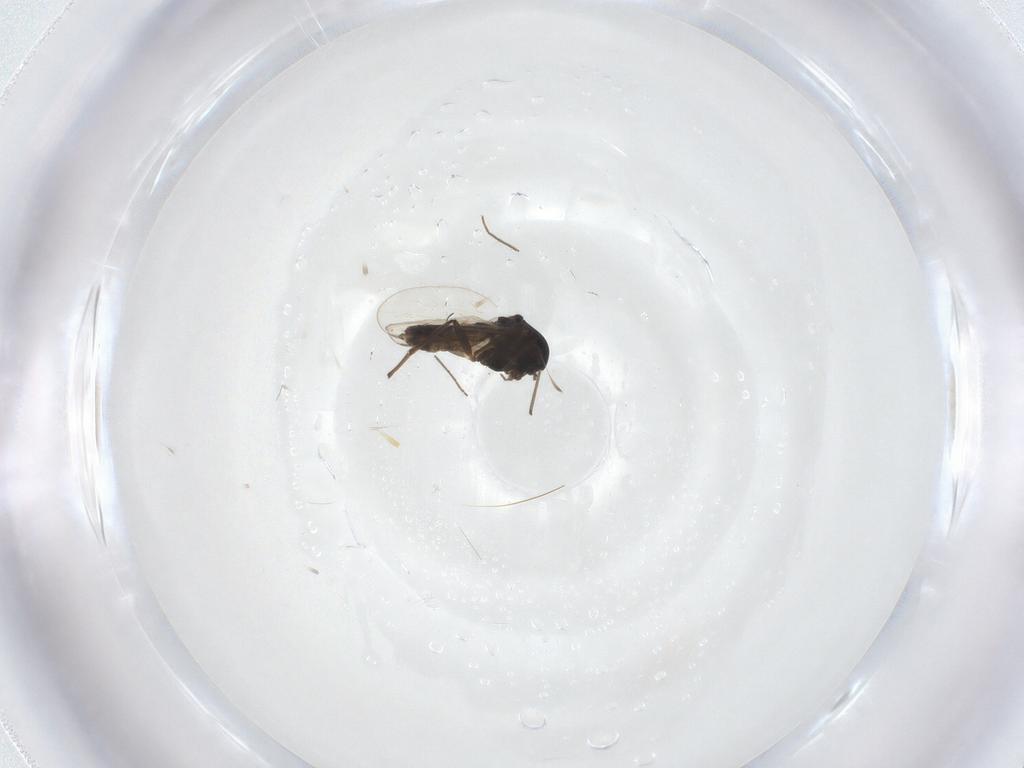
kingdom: Animalia
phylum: Arthropoda
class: Insecta
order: Diptera
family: Chironomidae
